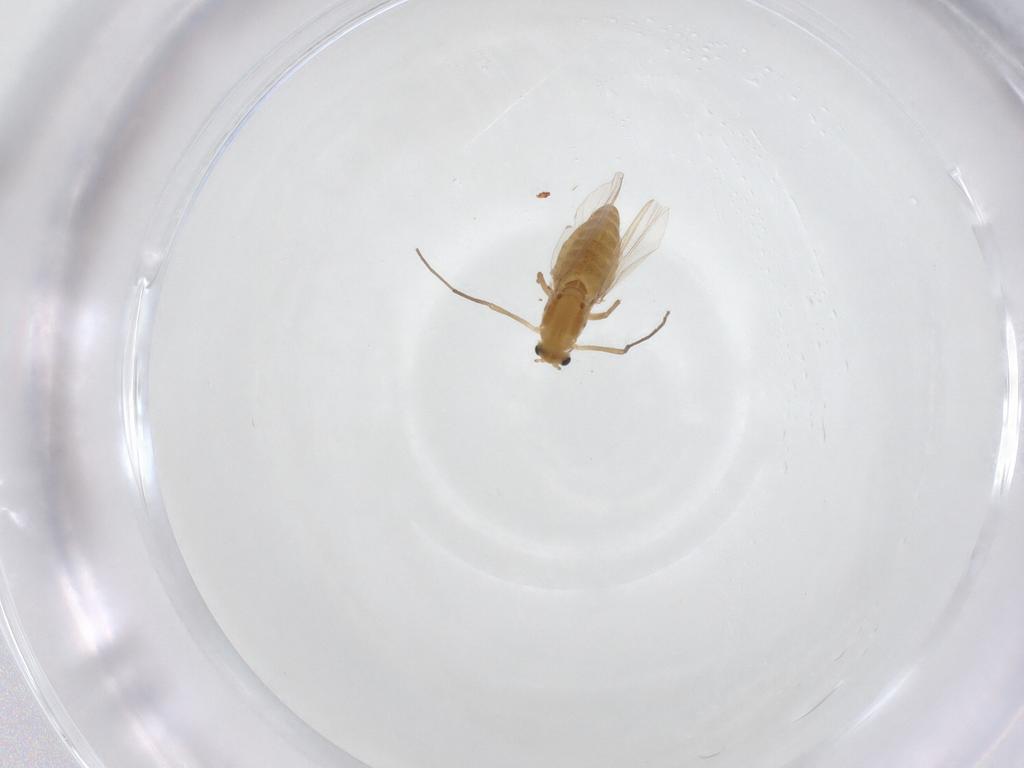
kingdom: Animalia
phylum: Arthropoda
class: Insecta
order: Diptera
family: Chironomidae
